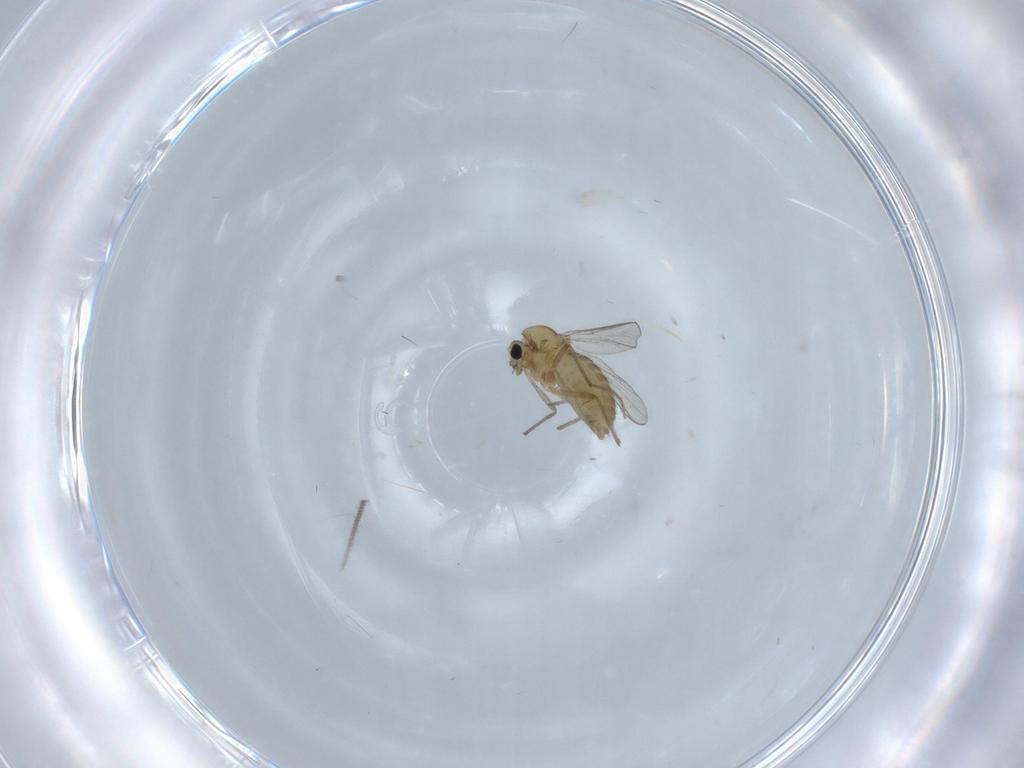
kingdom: Animalia
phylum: Arthropoda
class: Insecta
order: Diptera
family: Chironomidae
